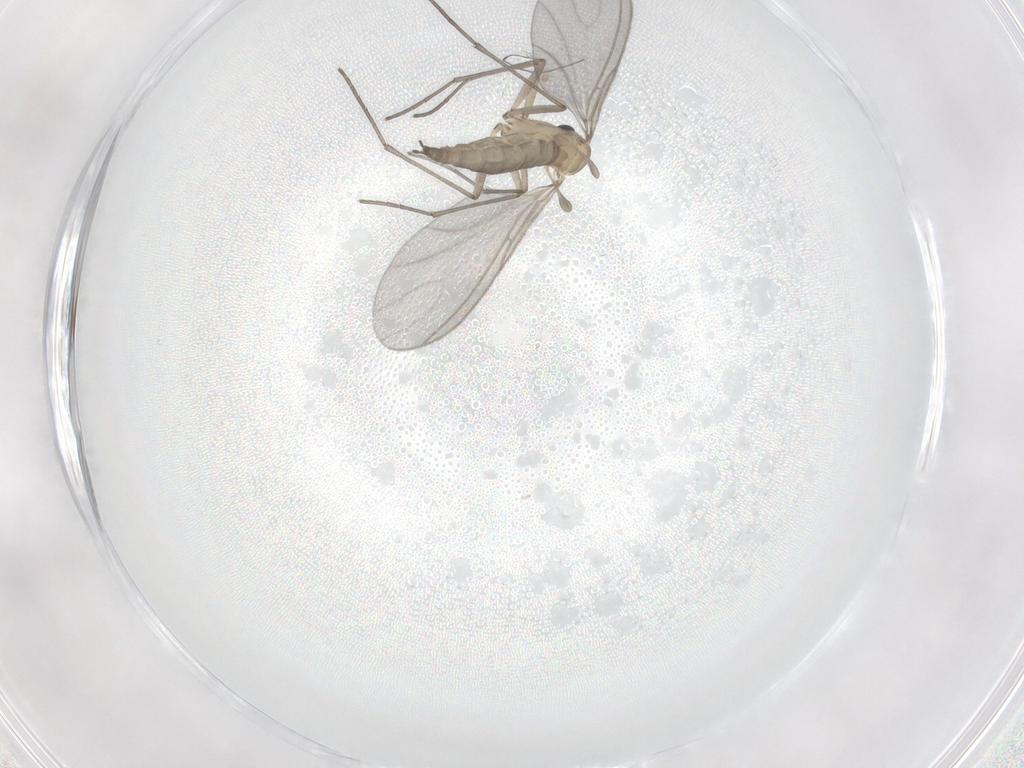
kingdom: Animalia
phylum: Arthropoda
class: Insecta
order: Diptera
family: Sciaridae
